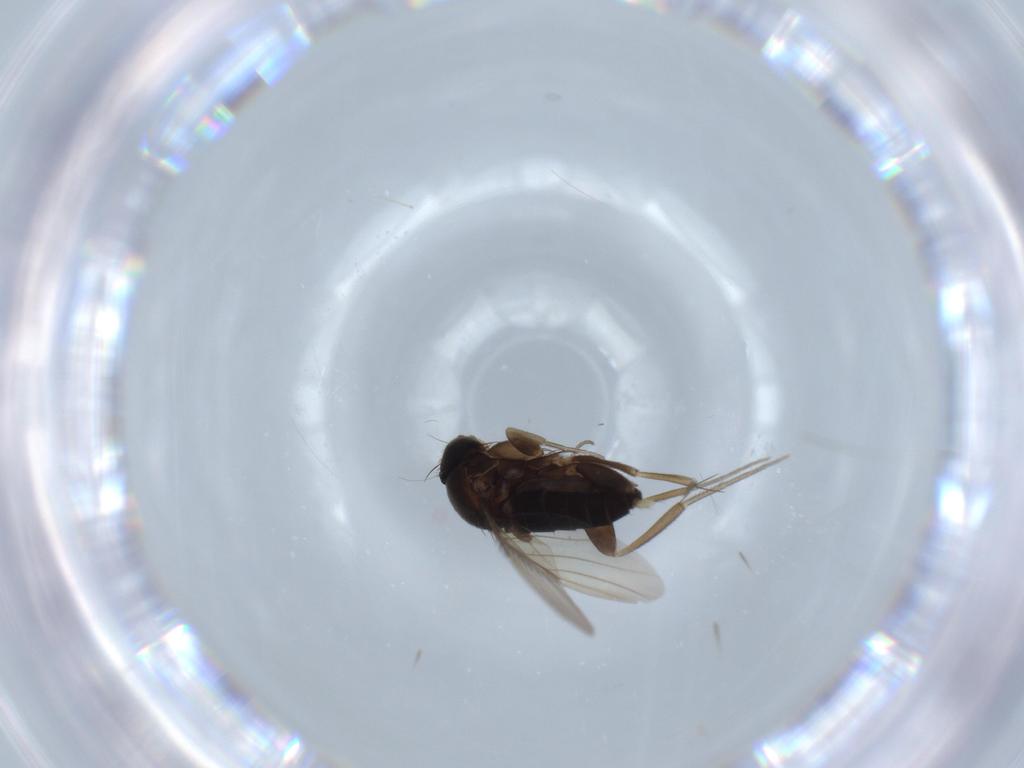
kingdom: Animalia
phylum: Arthropoda
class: Insecta
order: Diptera
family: Phoridae
